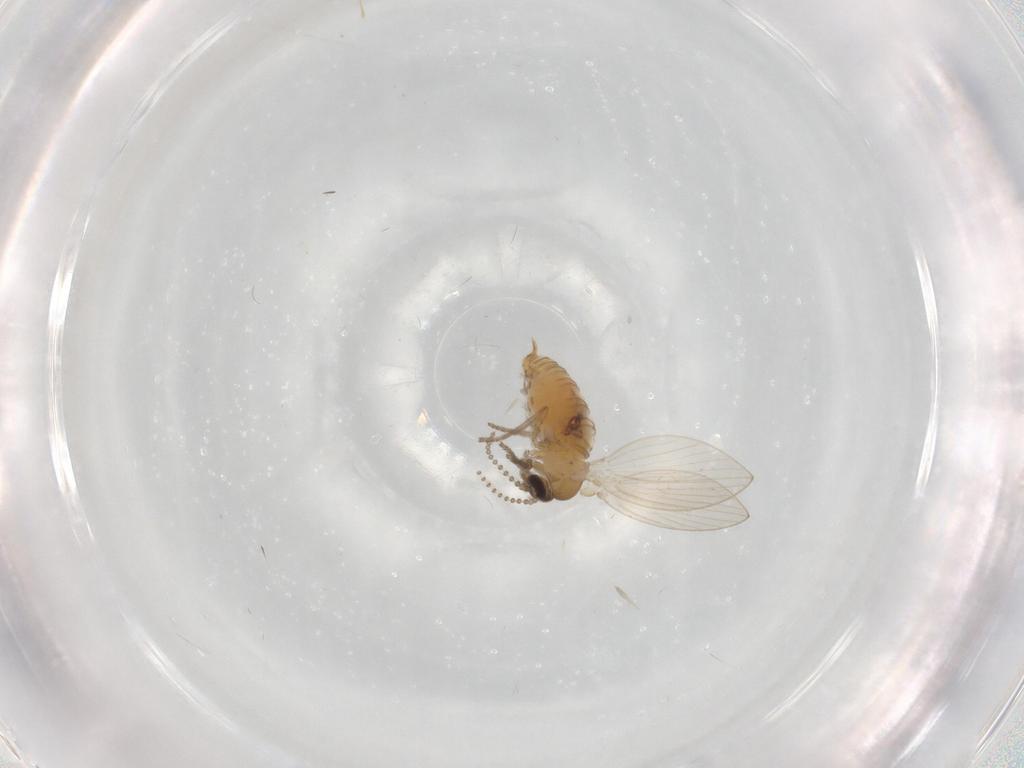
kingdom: Animalia
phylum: Arthropoda
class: Insecta
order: Diptera
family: Psychodidae
